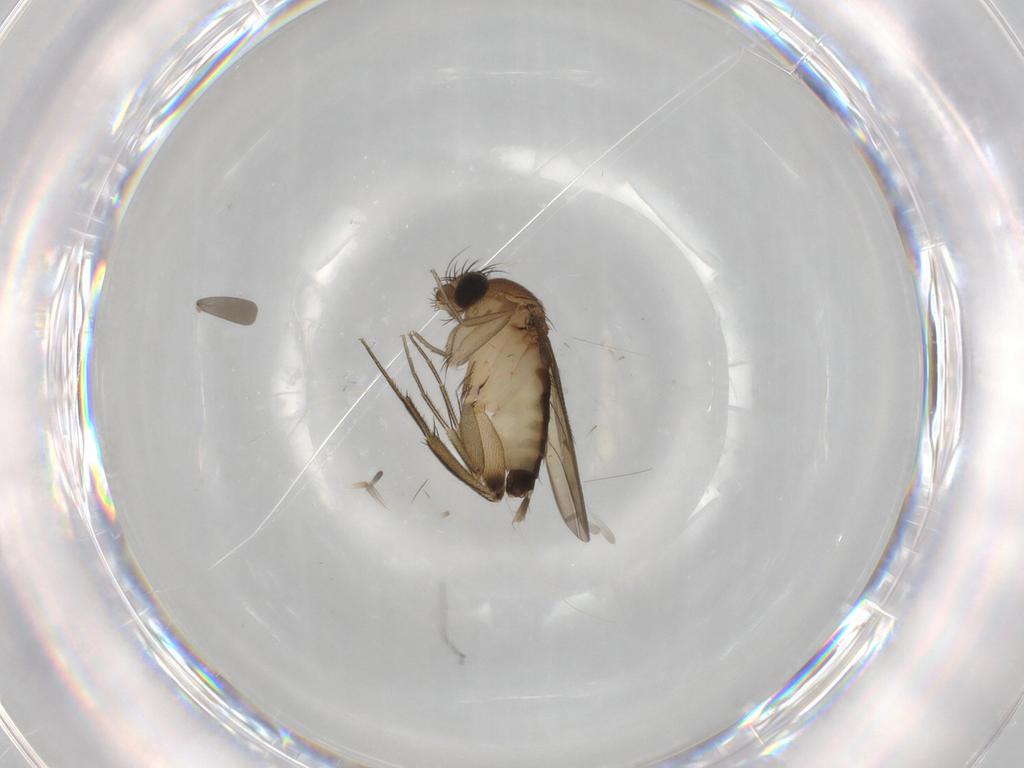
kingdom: Animalia
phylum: Arthropoda
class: Insecta
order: Diptera
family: Phoridae
